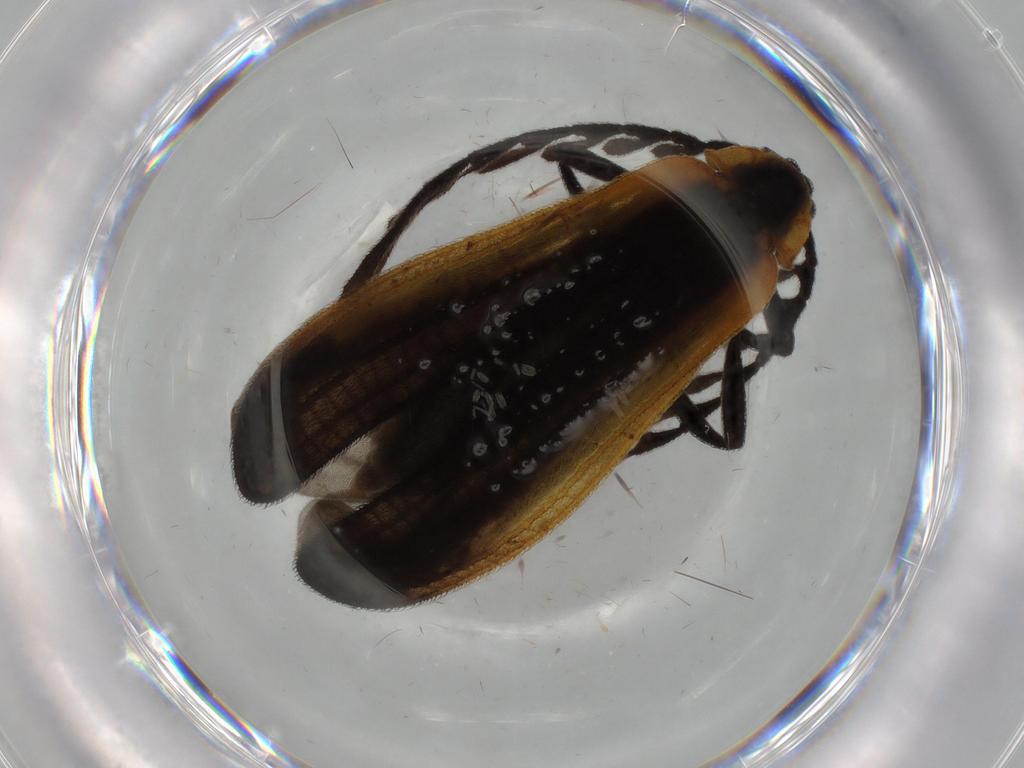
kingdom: Animalia
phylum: Arthropoda
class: Insecta
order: Coleoptera
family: Lycidae
